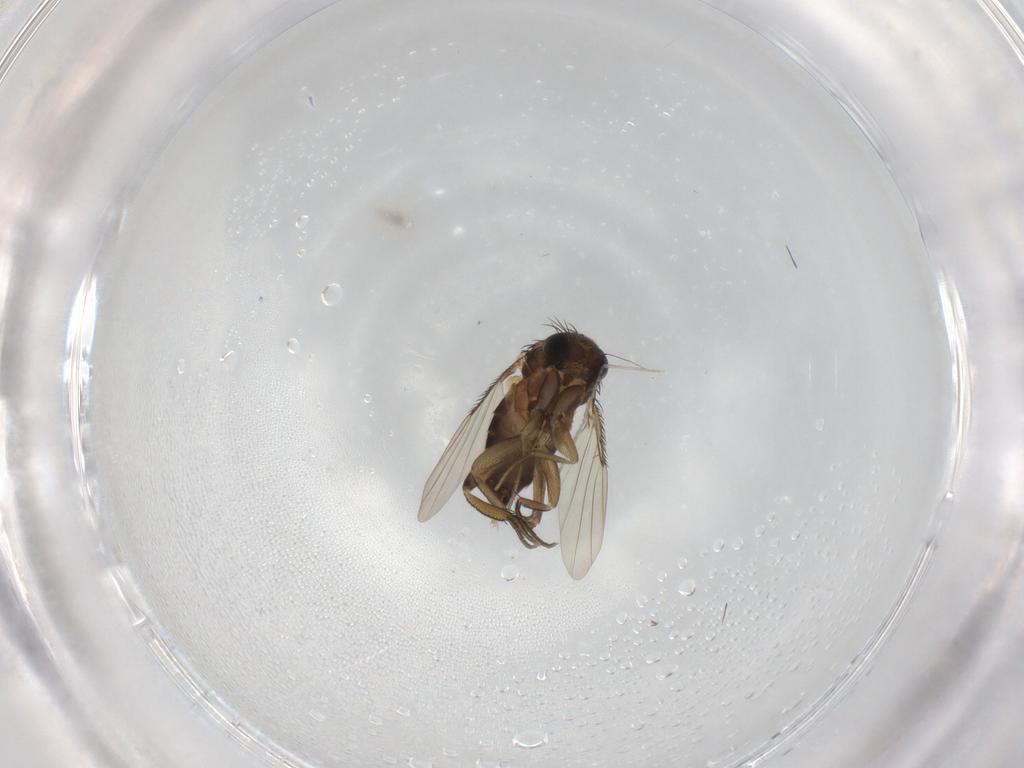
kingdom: Animalia
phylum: Arthropoda
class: Insecta
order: Diptera
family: Phoridae
